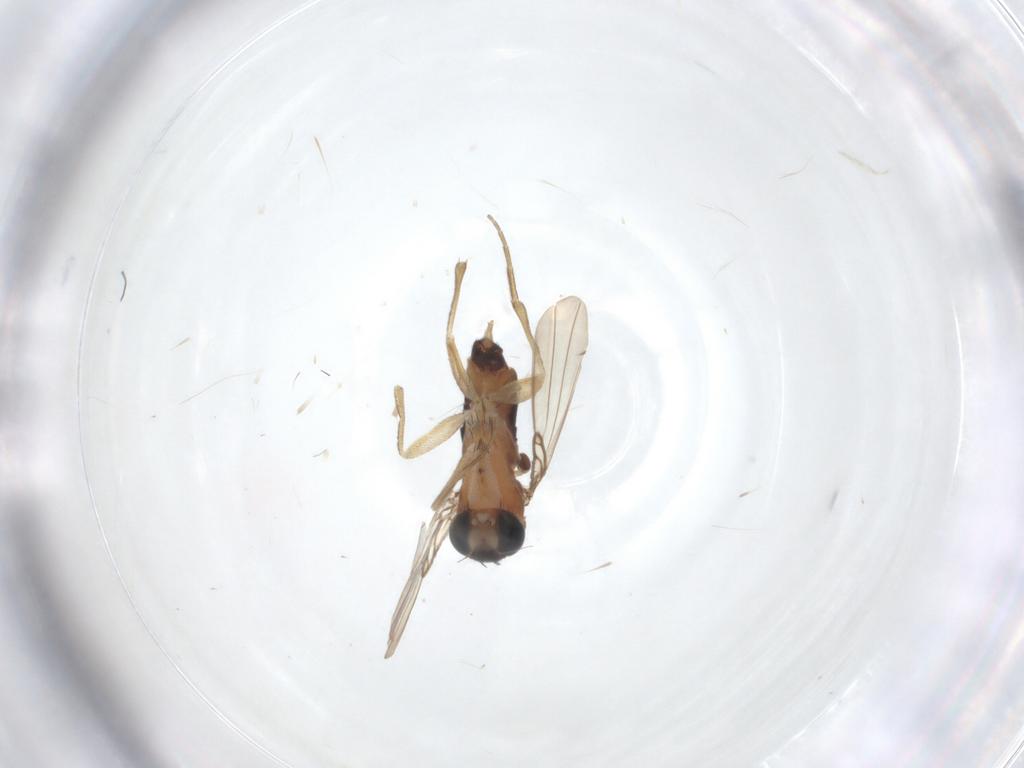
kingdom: Animalia
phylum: Arthropoda
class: Insecta
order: Diptera
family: Phoridae
